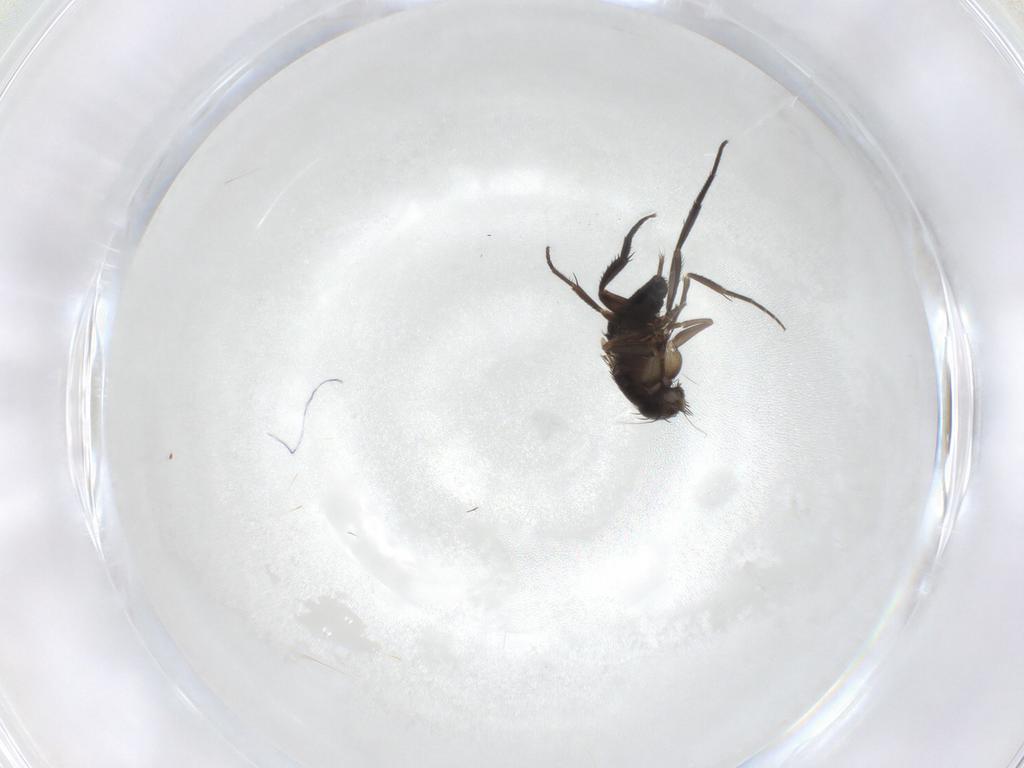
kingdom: Animalia
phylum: Arthropoda
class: Insecta
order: Diptera
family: Phoridae
